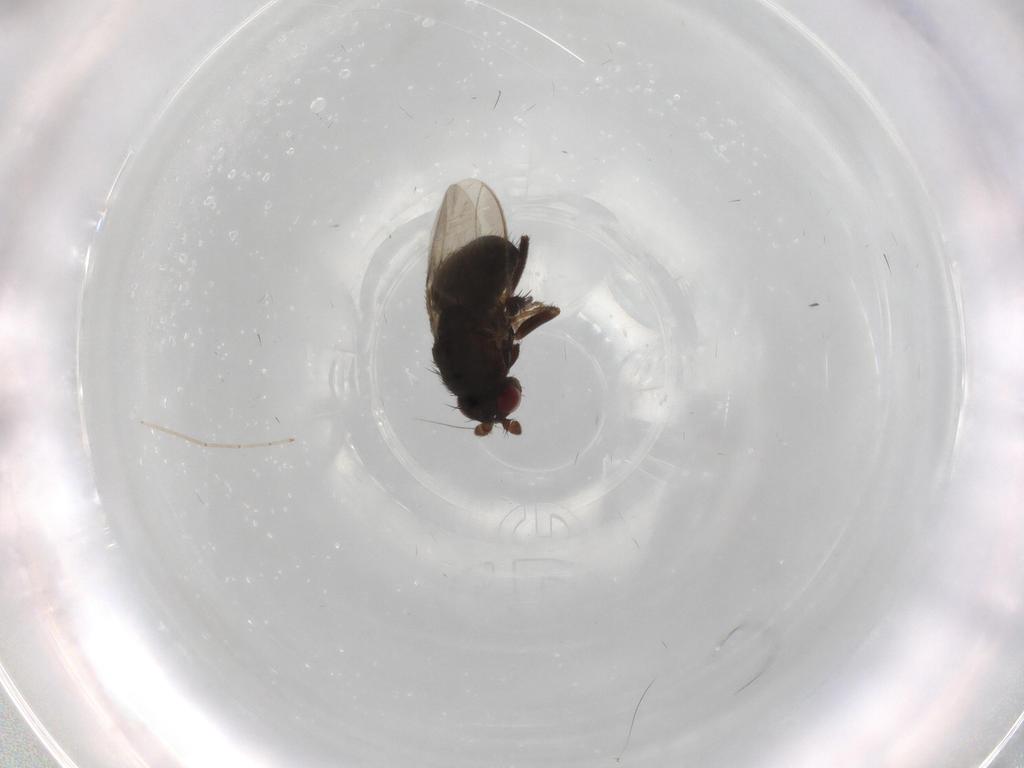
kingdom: Animalia
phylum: Arthropoda
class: Insecta
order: Diptera
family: Sphaeroceridae
